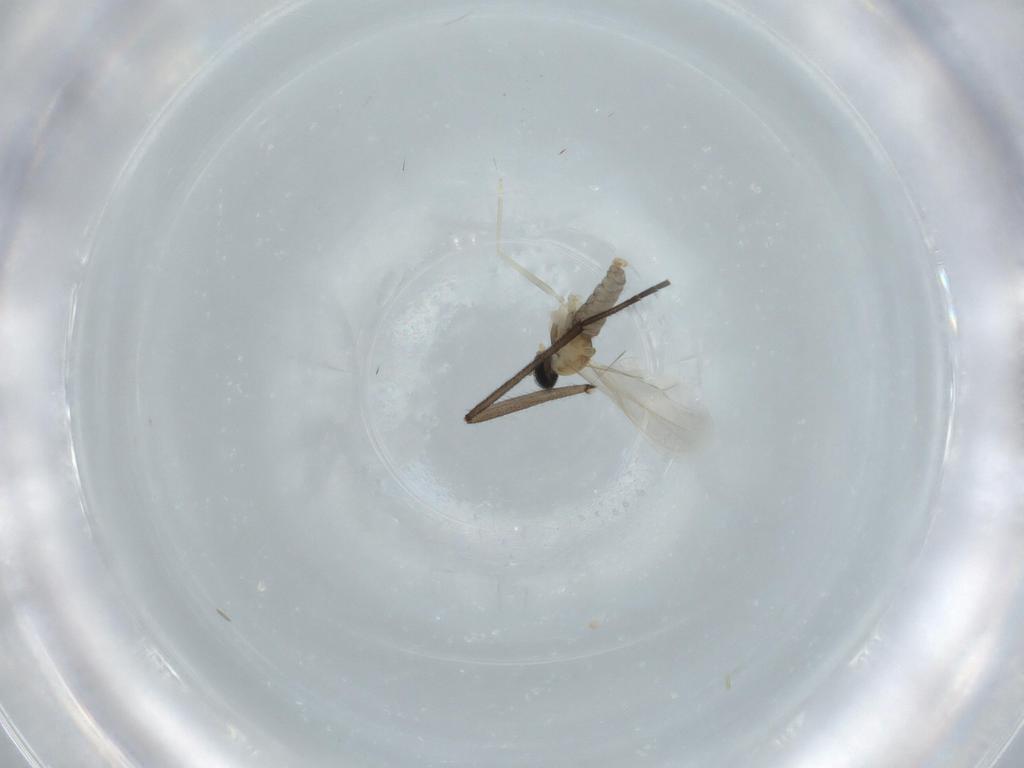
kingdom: Animalia
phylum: Arthropoda
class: Insecta
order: Diptera
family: Cecidomyiidae
